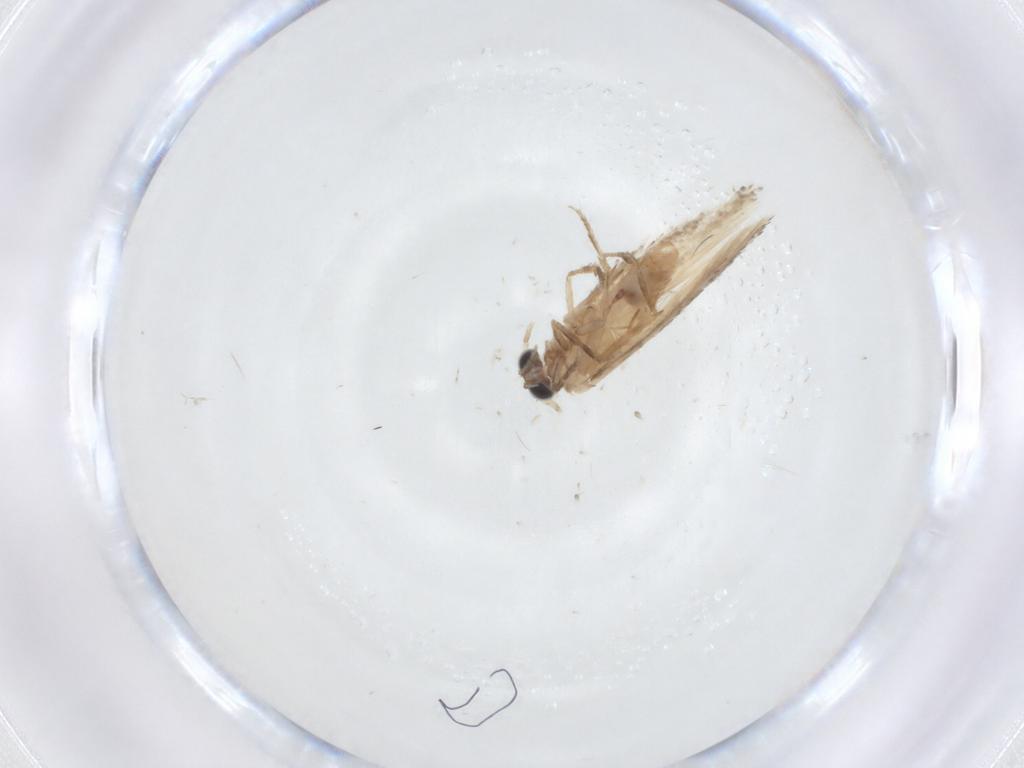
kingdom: Animalia
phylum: Arthropoda
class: Insecta
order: Lepidoptera
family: Nepticulidae
